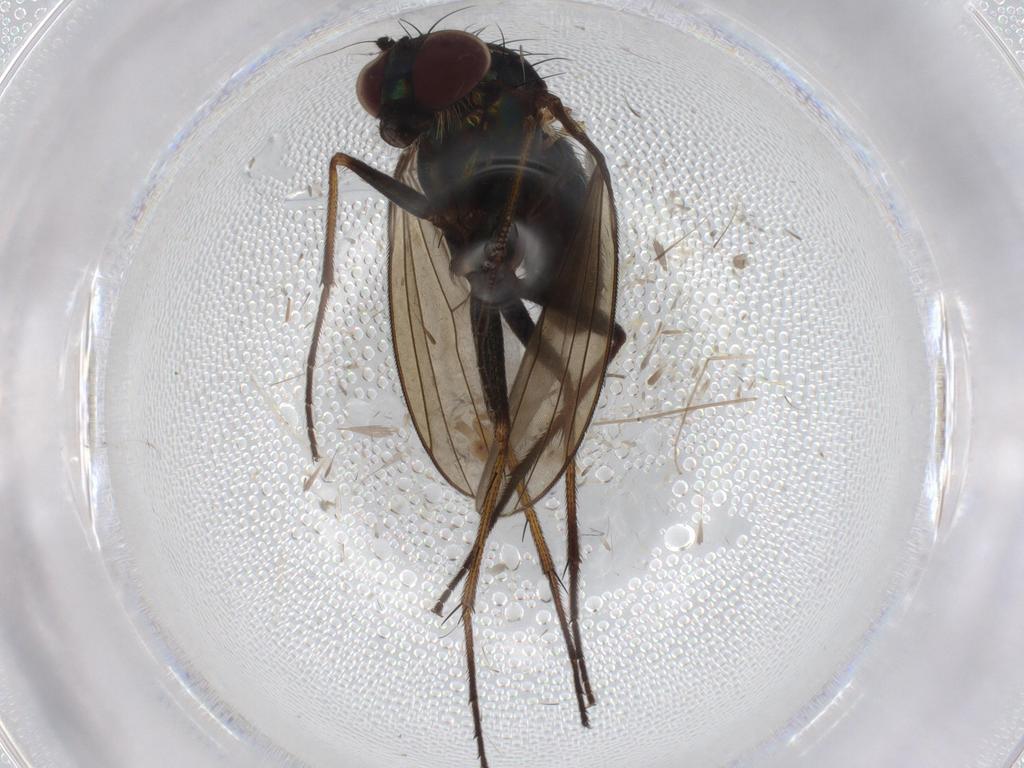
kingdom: Animalia
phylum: Arthropoda
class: Insecta
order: Diptera
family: Dolichopodidae
